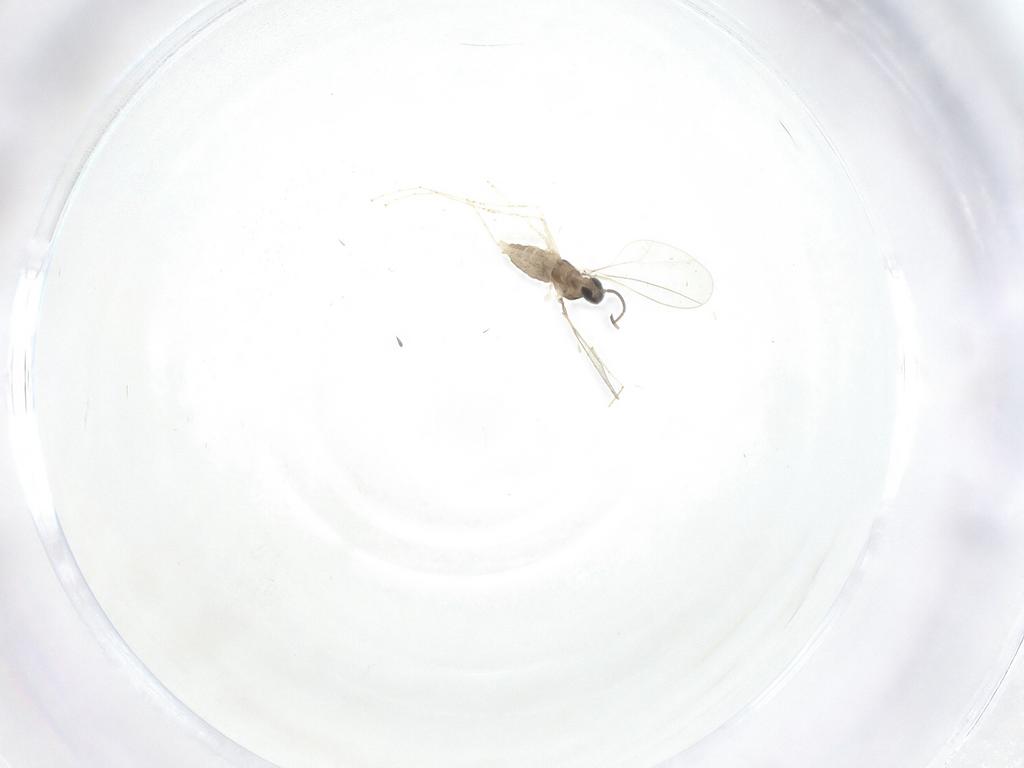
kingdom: Animalia
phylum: Arthropoda
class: Insecta
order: Diptera
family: Cecidomyiidae
